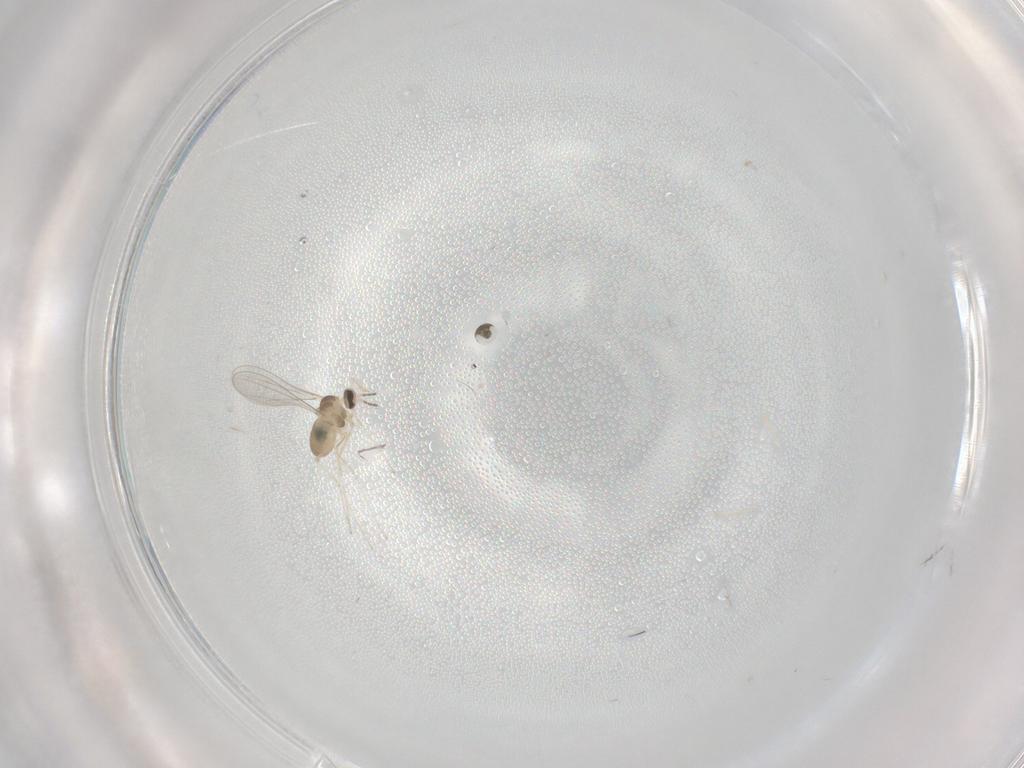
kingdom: Animalia
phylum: Arthropoda
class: Insecta
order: Diptera
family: Cecidomyiidae
